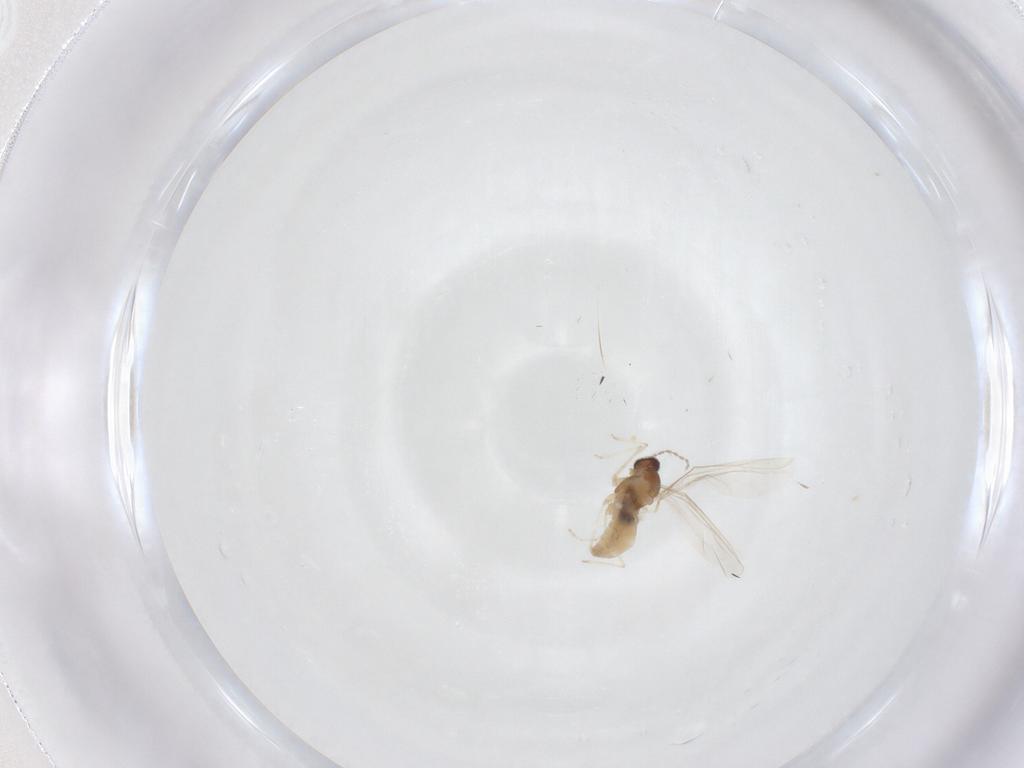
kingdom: Animalia
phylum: Arthropoda
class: Insecta
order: Diptera
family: Cecidomyiidae
